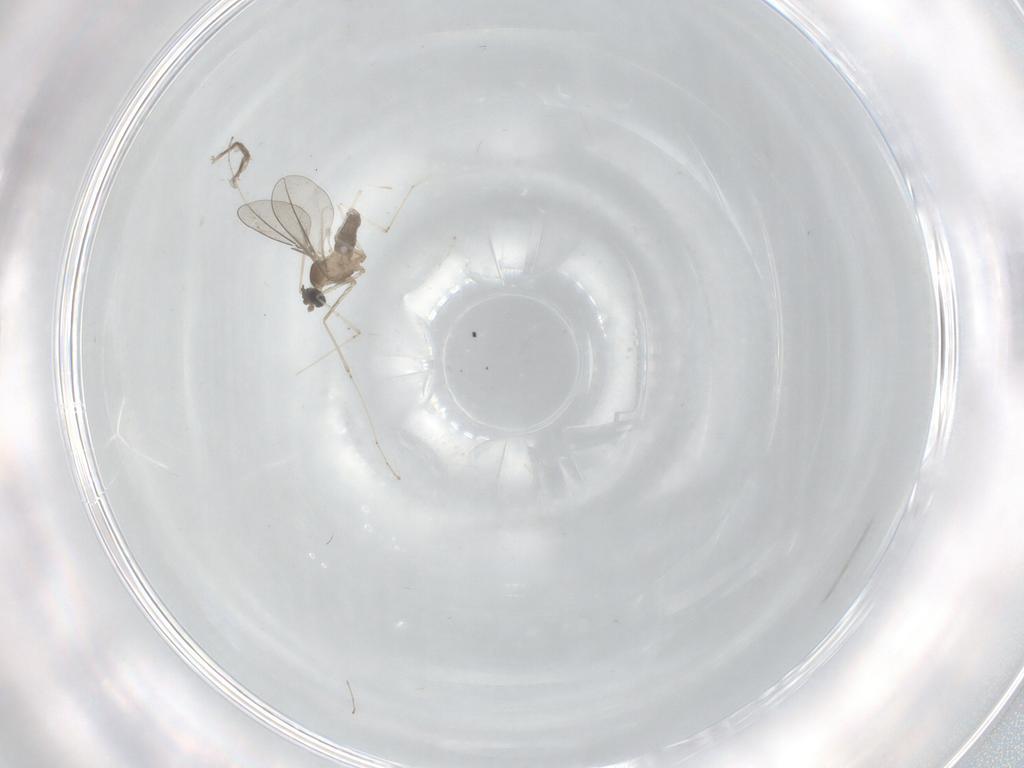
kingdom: Animalia
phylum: Arthropoda
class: Insecta
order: Diptera
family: Cecidomyiidae
